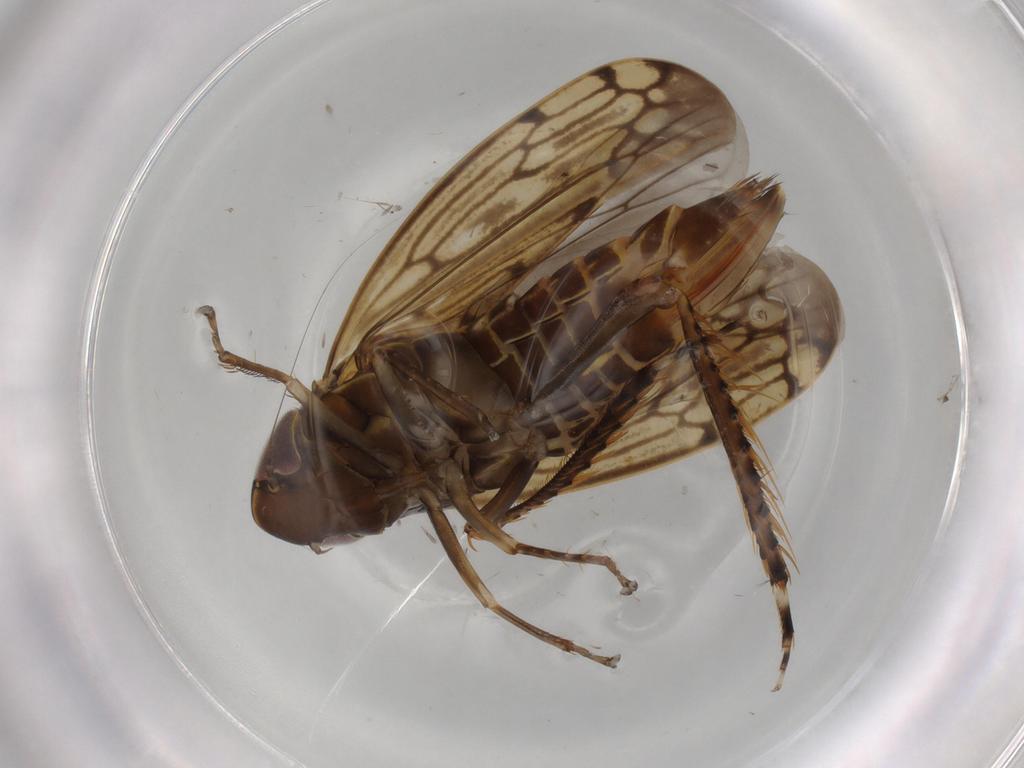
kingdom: Animalia
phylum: Arthropoda
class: Insecta
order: Hemiptera
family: Cicadellidae
